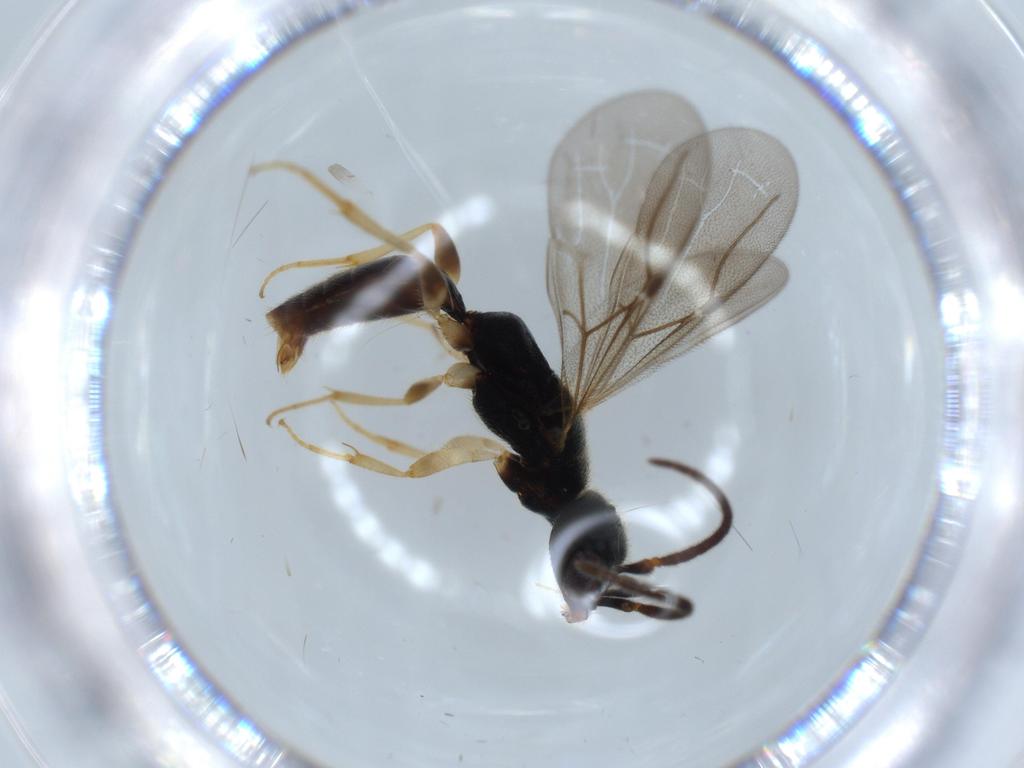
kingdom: Animalia
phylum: Arthropoda
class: Insecta
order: Hymenoptera
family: Bethylidae
